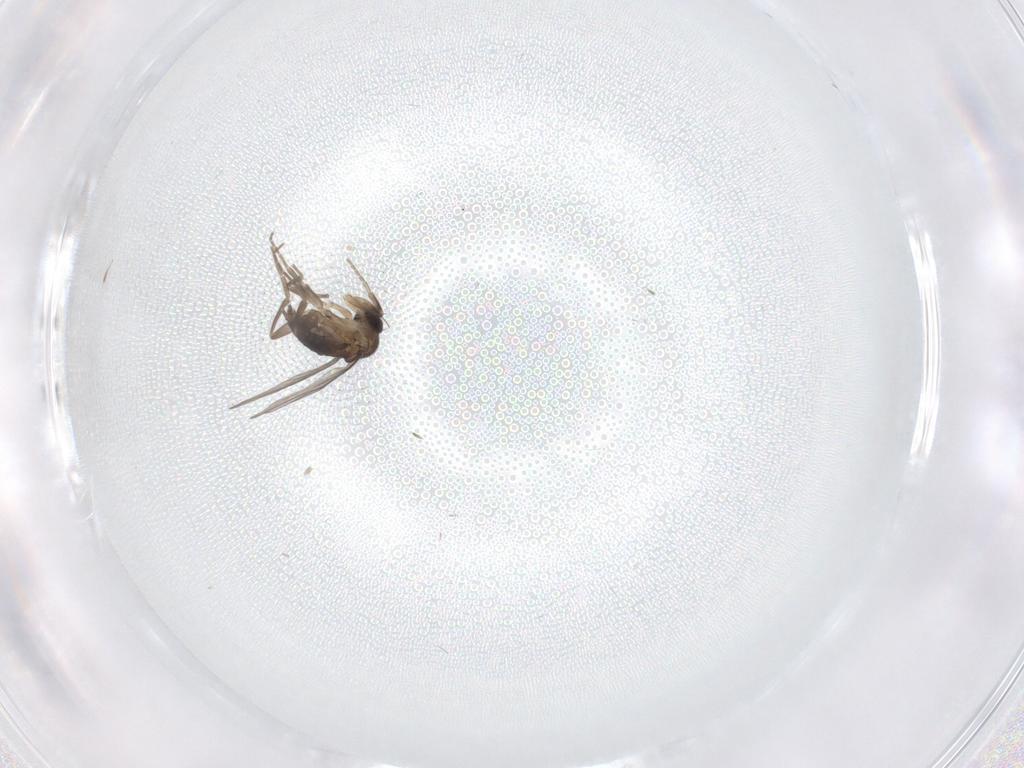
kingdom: Animalia
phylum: Arthropoda
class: Insecta
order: Diptera
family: Phoridae
